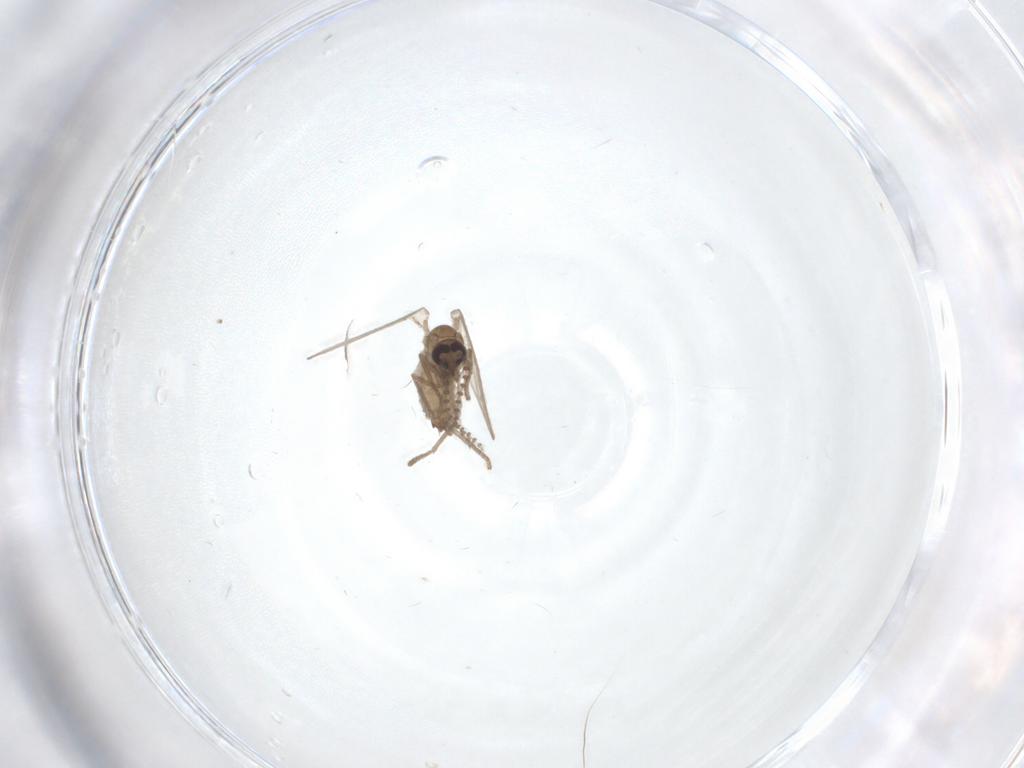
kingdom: Animalia
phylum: Arthropoda
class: Insecta
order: Diptera
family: Psychodidae
